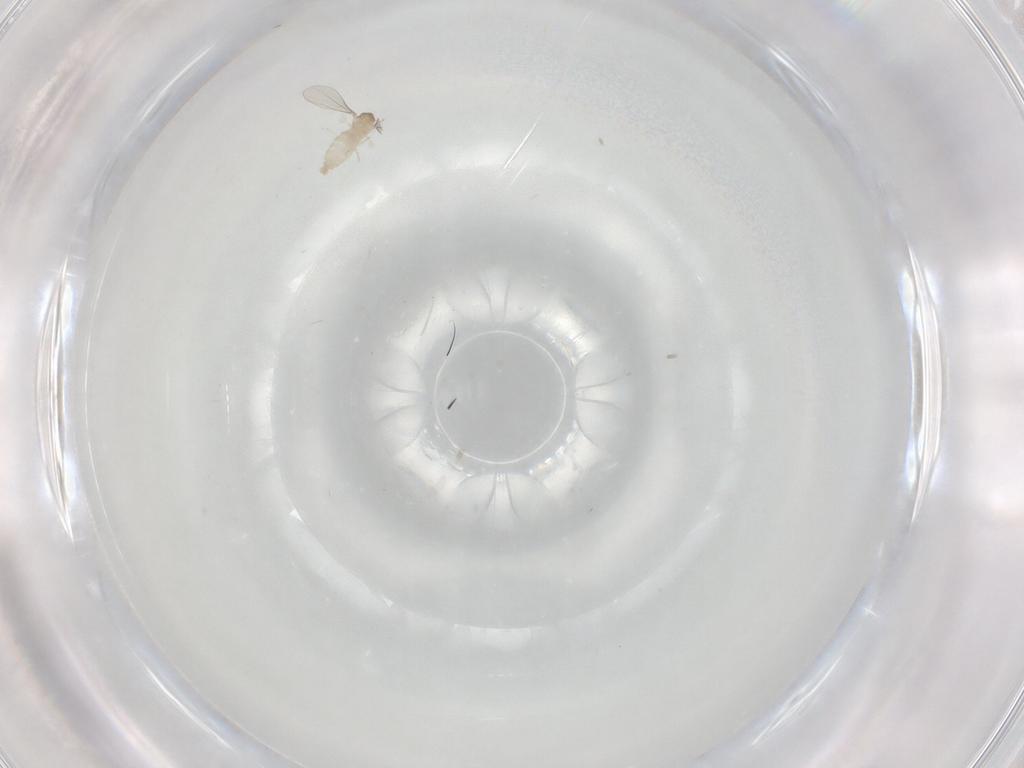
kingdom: Animalia
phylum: Arthropoda
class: Insecta
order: Diptera
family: Cecidomyiidae
